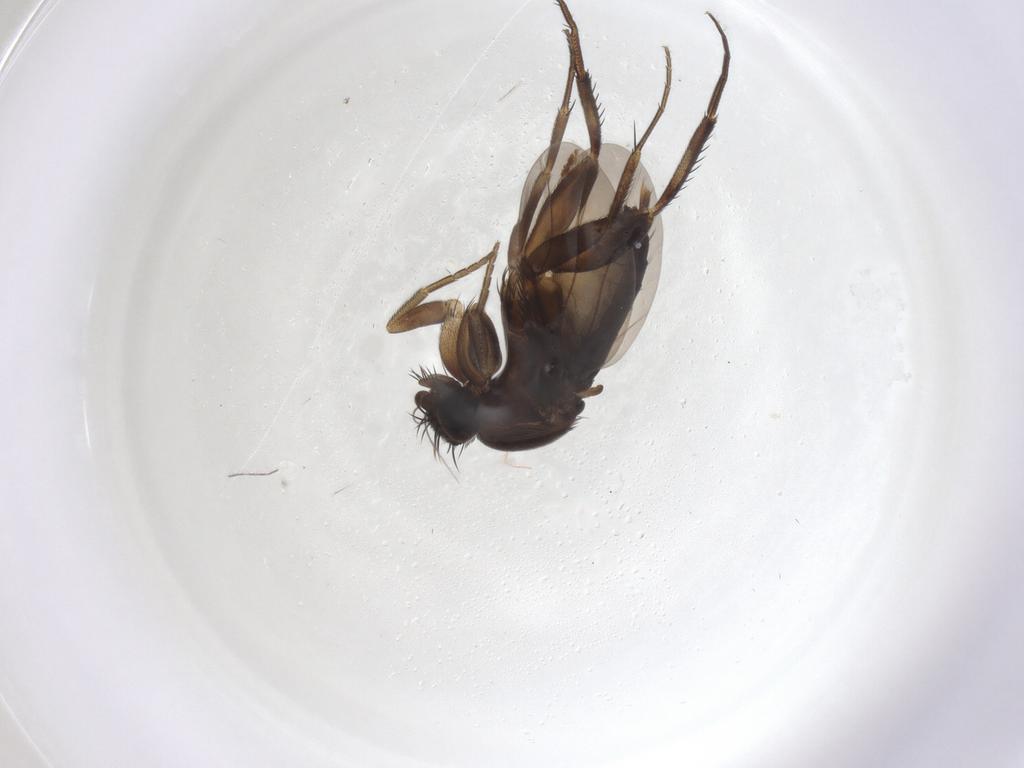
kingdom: Animalia
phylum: Arthropoda
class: Insecta
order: Diptera
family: Phoridae
